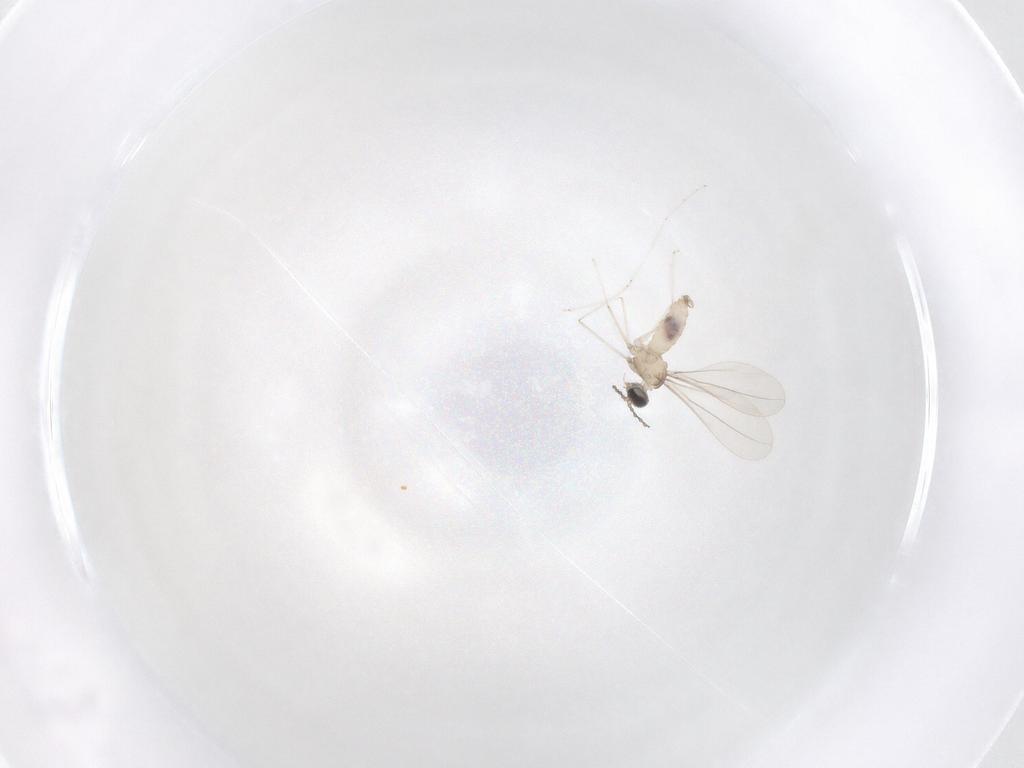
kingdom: Animalia
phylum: Arthropoda
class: Insecta
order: Diptera
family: Cecidomyiidae
